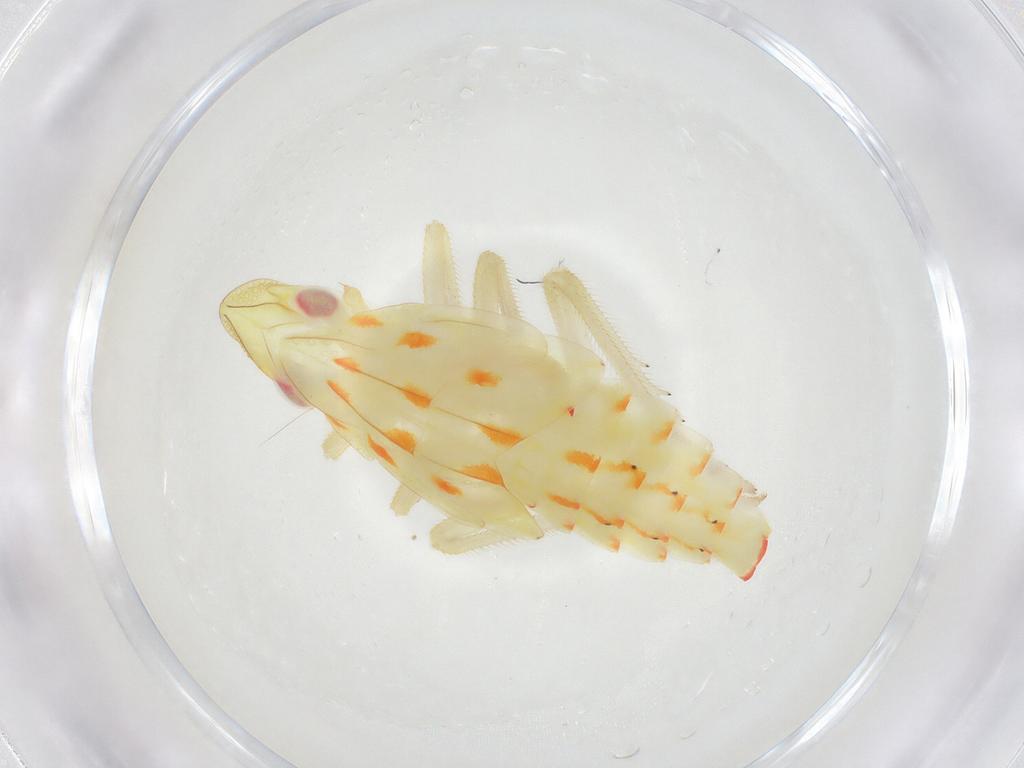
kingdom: Animalia
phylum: Arthropoda
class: Insecta
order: Hemiptera
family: Tropiduchidae
